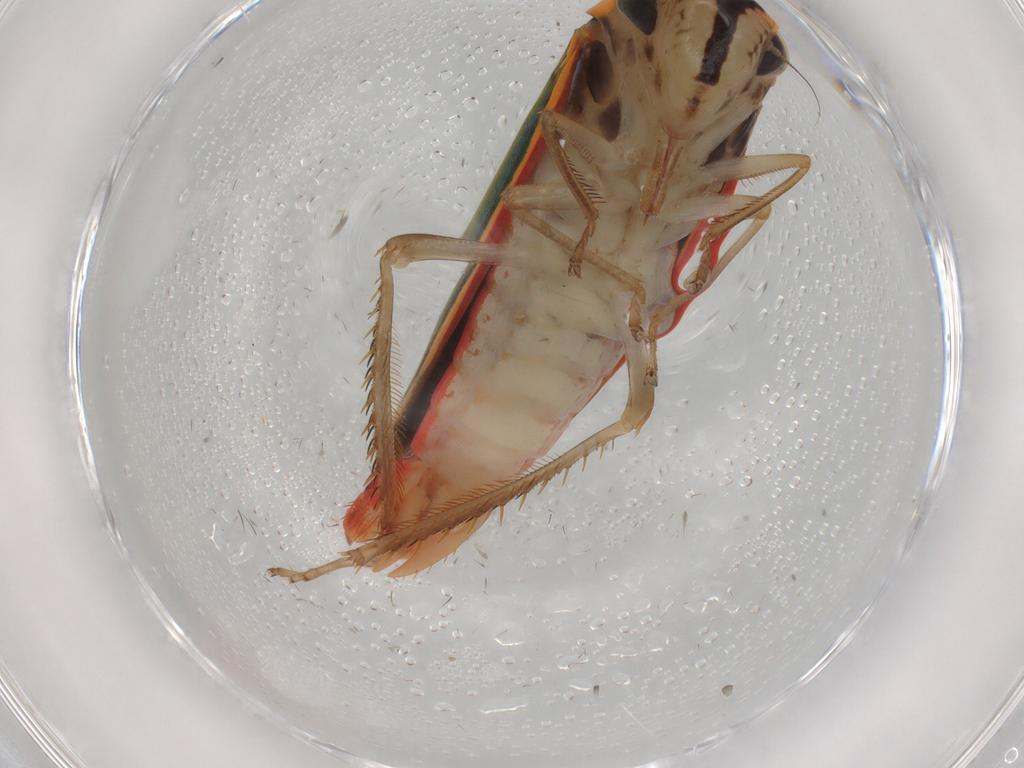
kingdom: Animalia
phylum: Arthropoda
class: Insecta
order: Hemiptera
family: Cicadellidae
